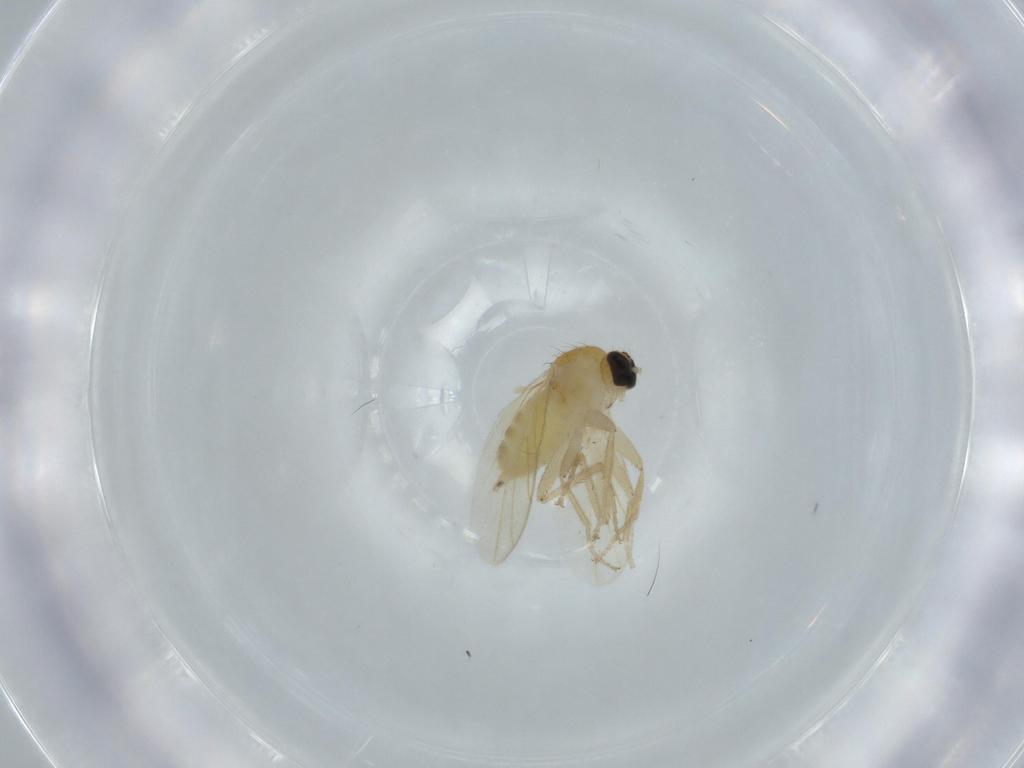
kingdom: Animalia
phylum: Arthropoda
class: Insecta
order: Diptera
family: Hybotidae
